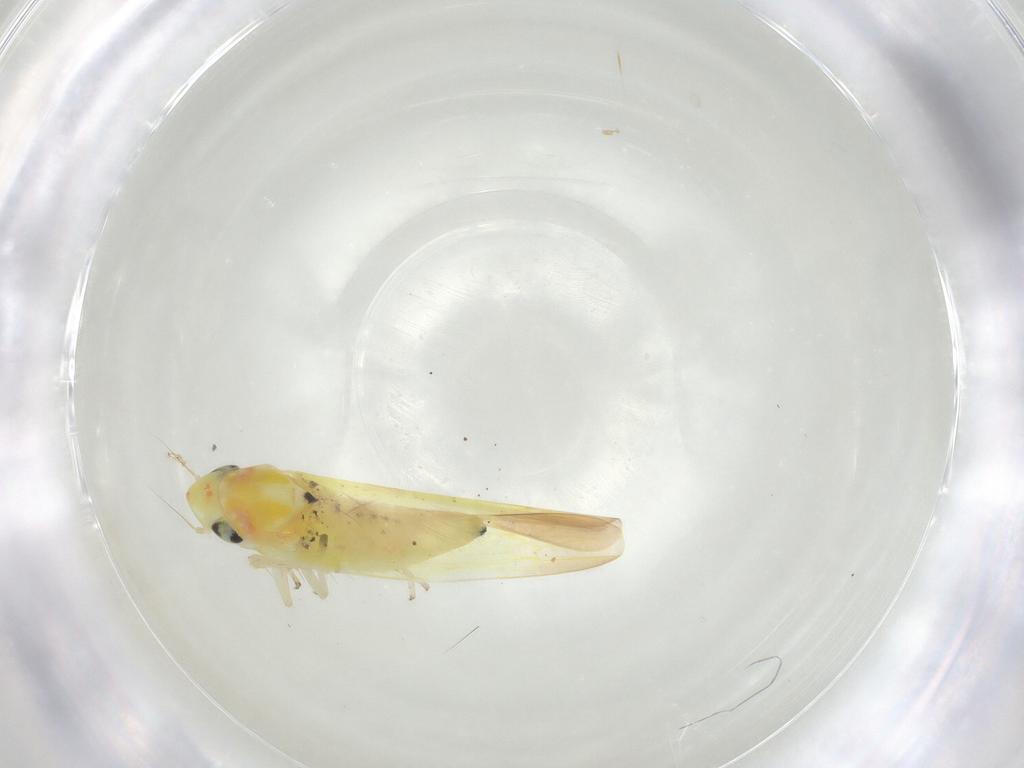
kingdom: Animalia
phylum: Arthropoda
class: Insecta
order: Hemiptera
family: Cicadellidae
